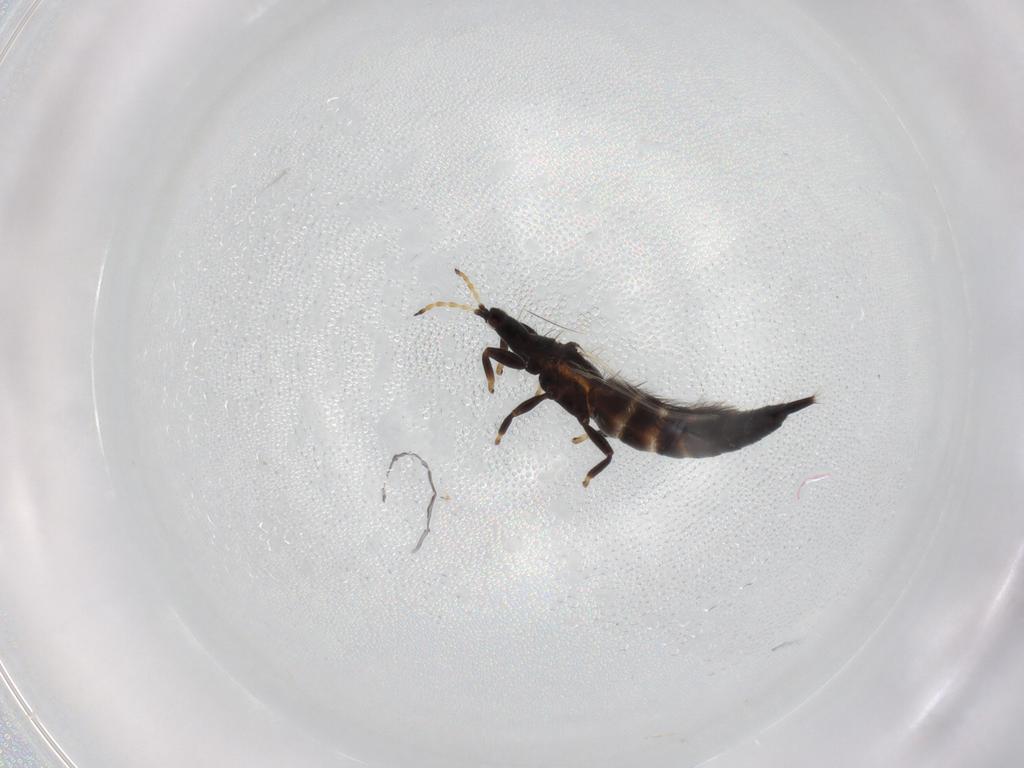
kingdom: Animalia
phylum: Arthropoda
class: Insecta
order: Thysanoptera
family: Phlaeothripidae
